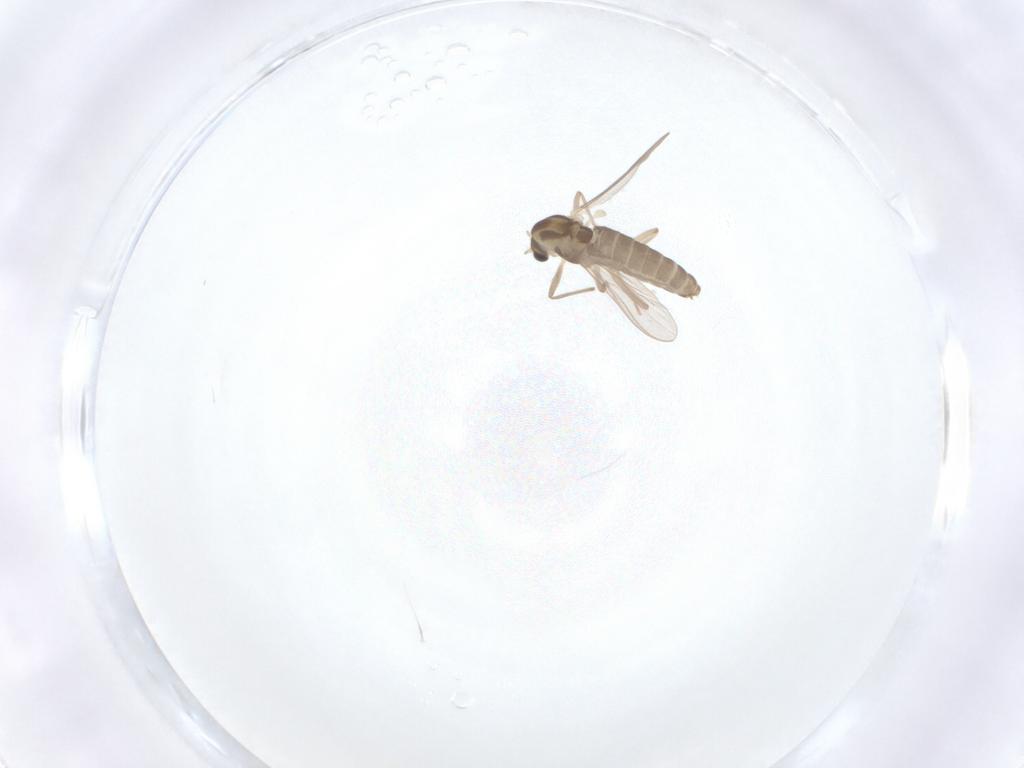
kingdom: Animalia
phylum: Arthropoda
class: Insecta
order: Diptera
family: Chironomidae
